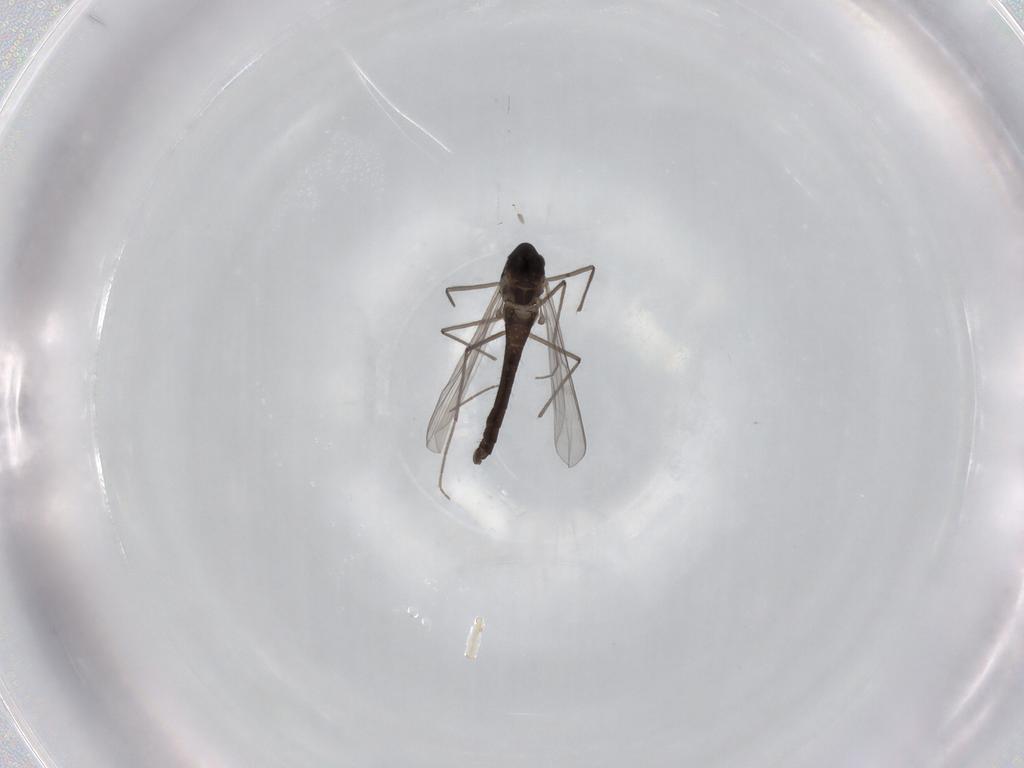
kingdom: Animalia
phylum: Arthropoda
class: Insecta
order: Diptera
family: Chironomidae
